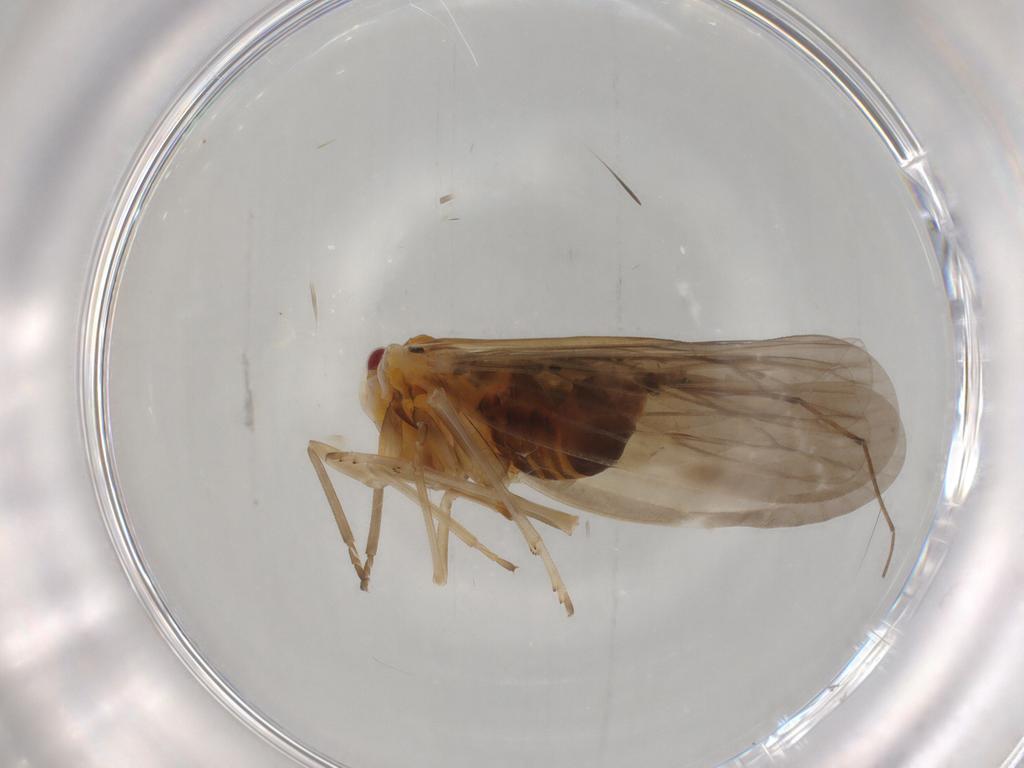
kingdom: Animalia
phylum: Arthropoda
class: Insecta
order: Hemiptera
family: Derbidae
